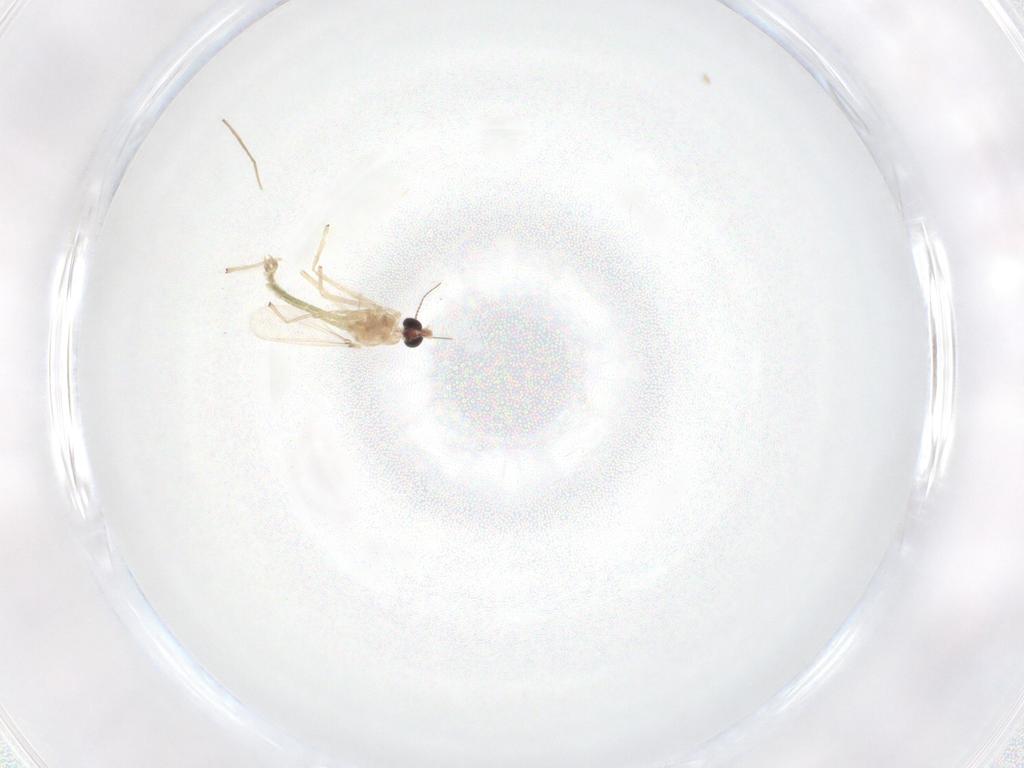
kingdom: Animalia
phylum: Arthropoda
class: Insecta
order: Diptera
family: Chironomidae
